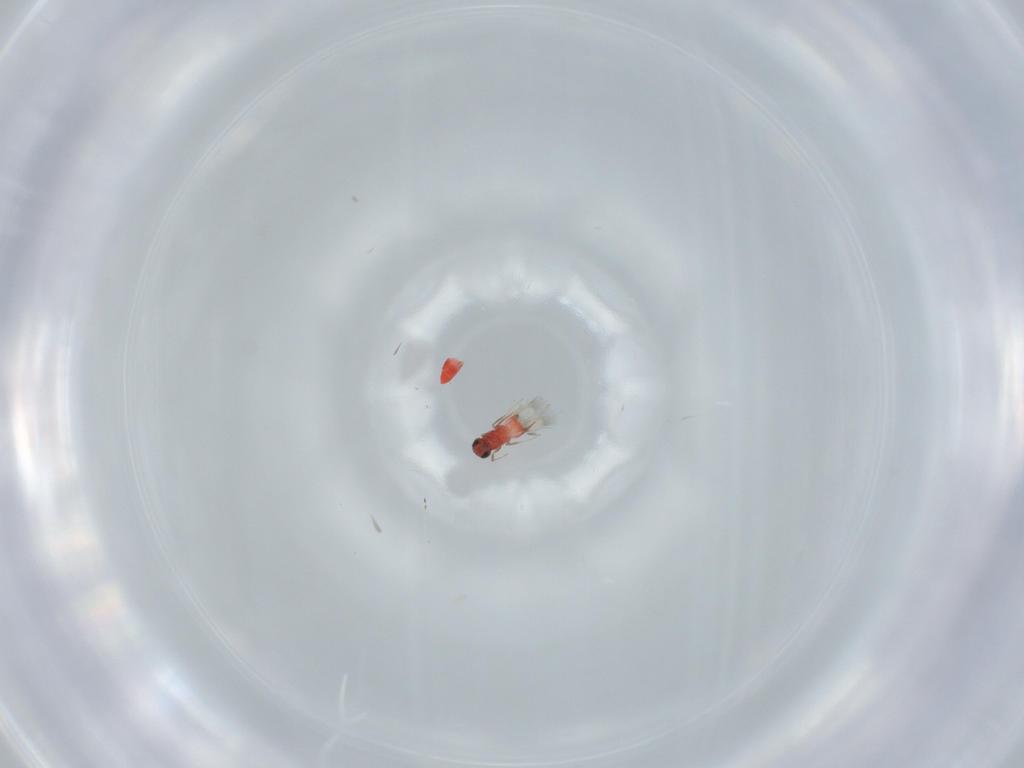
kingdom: Animalia
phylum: Arthropoda
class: Insecta
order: Hymenoptera
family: Trichogrammatidae
